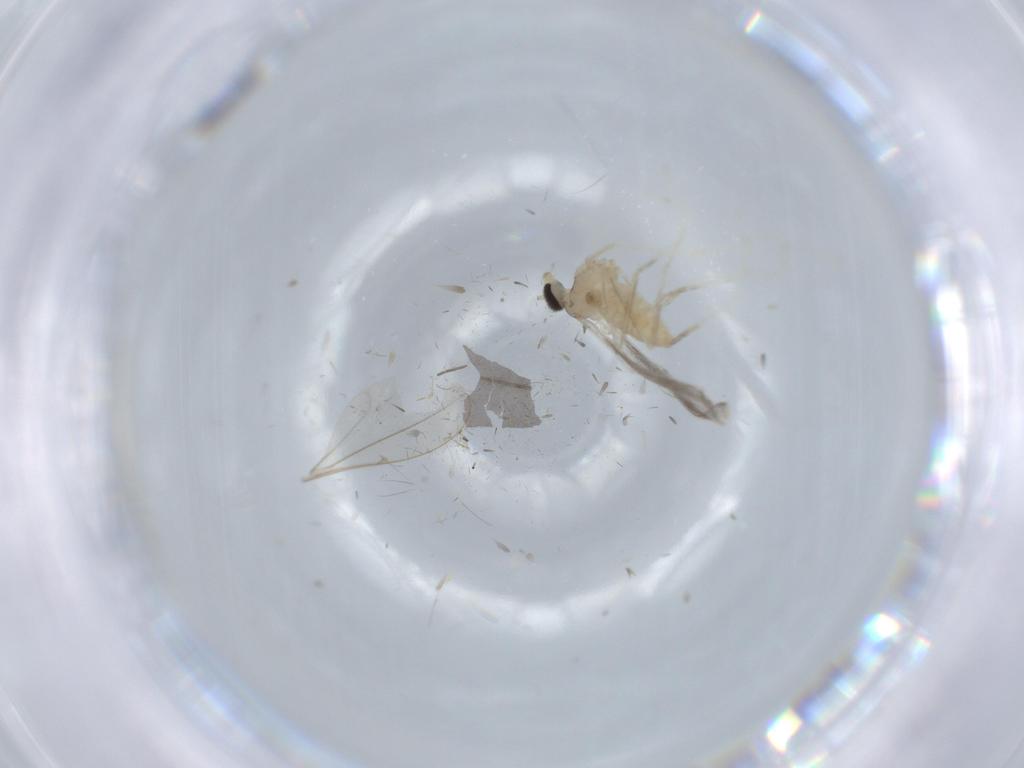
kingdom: Animalia
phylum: Arthropoda
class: Insecta
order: Diptera
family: Cecidomyiidae
